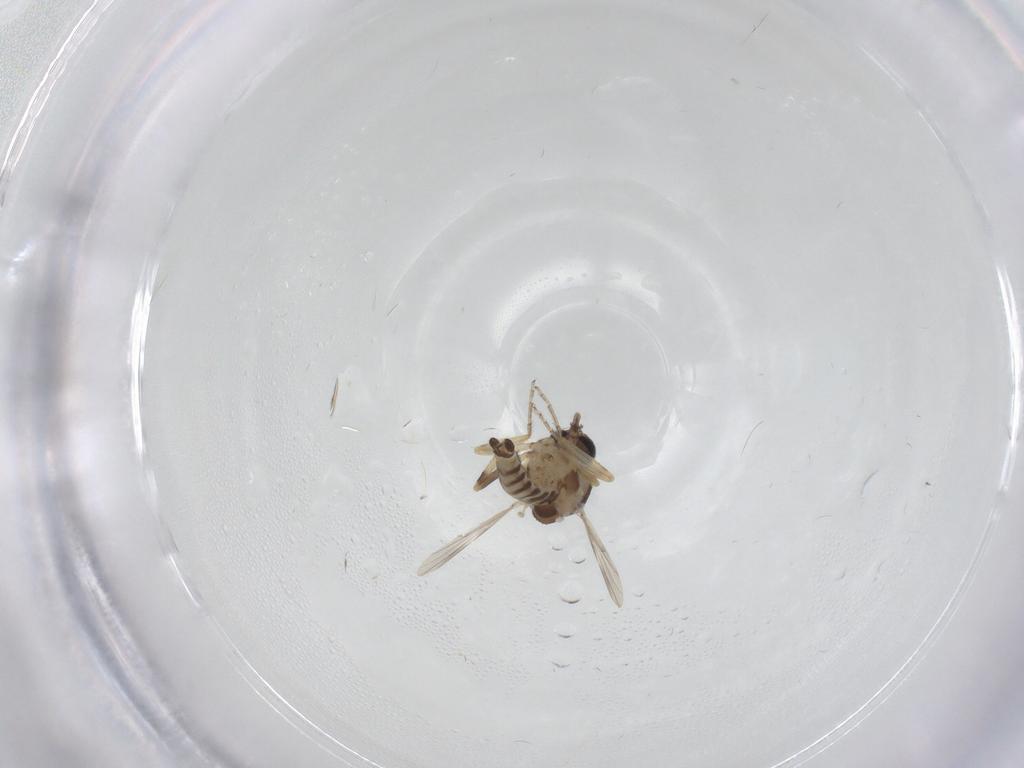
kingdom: Animalia
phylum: Arthropoda
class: Insecta
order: Diptera
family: Ceratopogonidae
